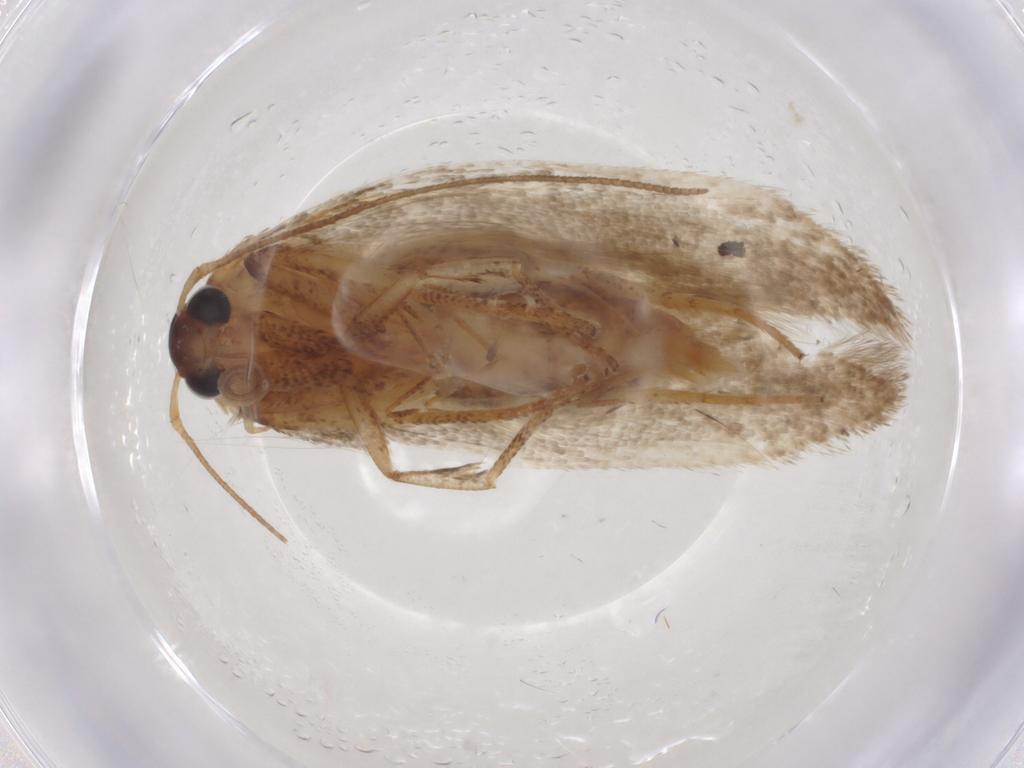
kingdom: Animalia
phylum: Arthropoda
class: Insecta
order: Lepidoptera
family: Blastobasidae
